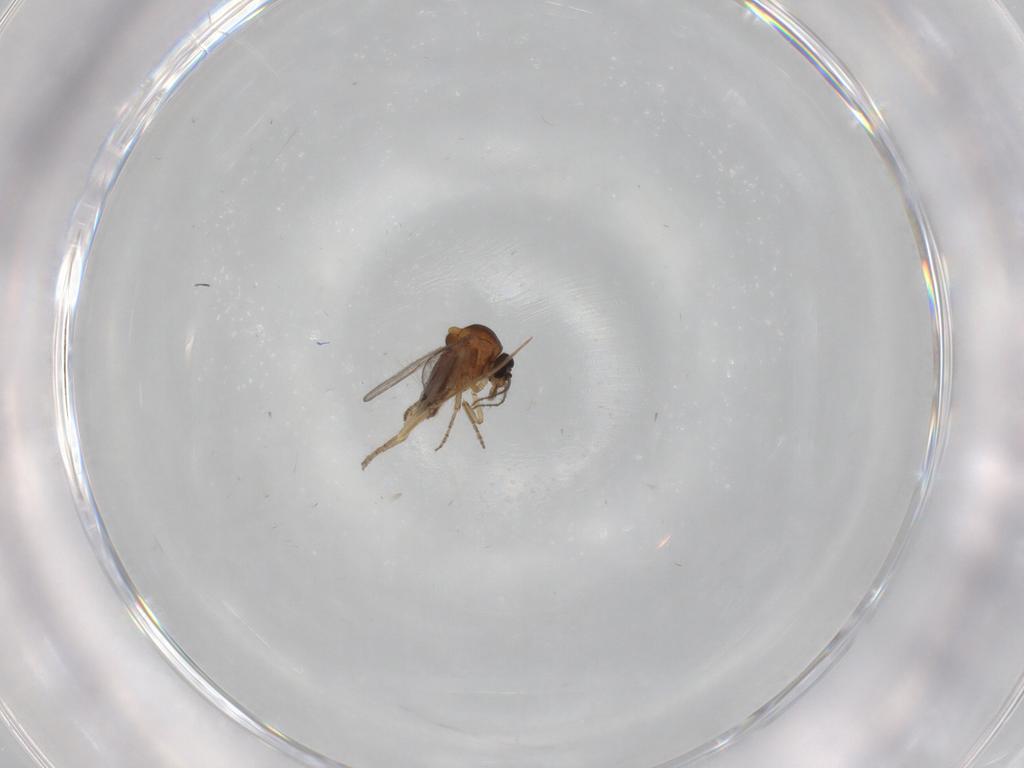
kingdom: Animalia
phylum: Arthropoda
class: Insecta
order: Diptera
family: Ceratopogonidae
